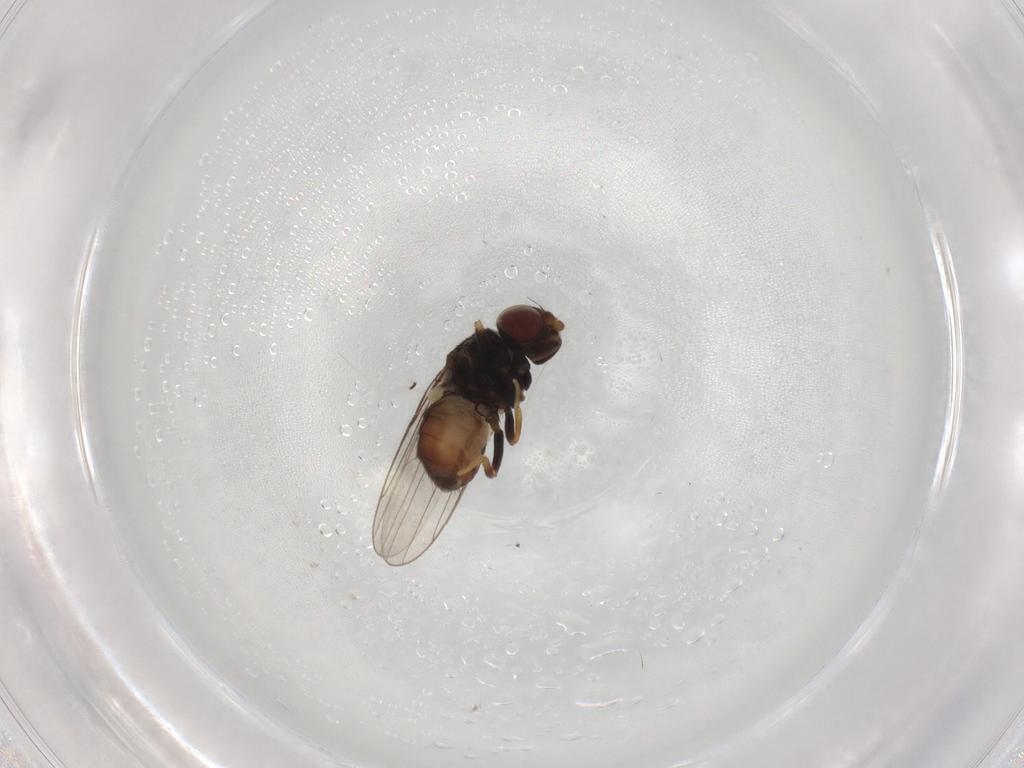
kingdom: Animalia
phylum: Arthropoda
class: Insecta
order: Diptera
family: Chloropidae
